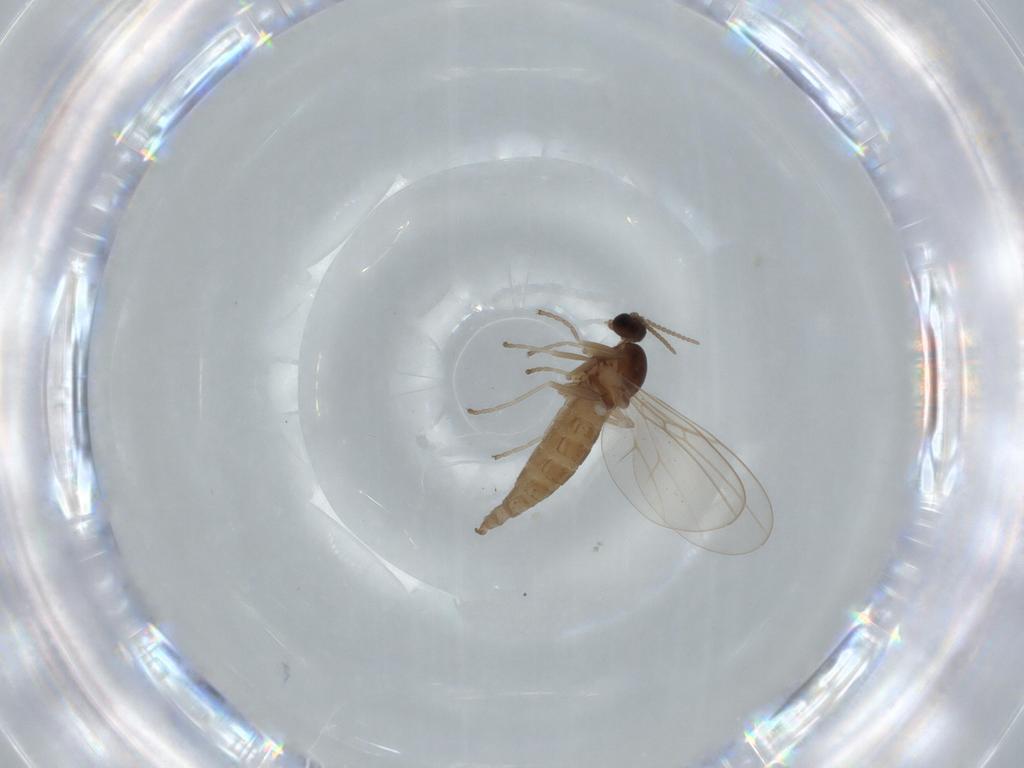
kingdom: Animalia
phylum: Arthropoda
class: Insecta
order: Diptera
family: Cecidomyiidae
